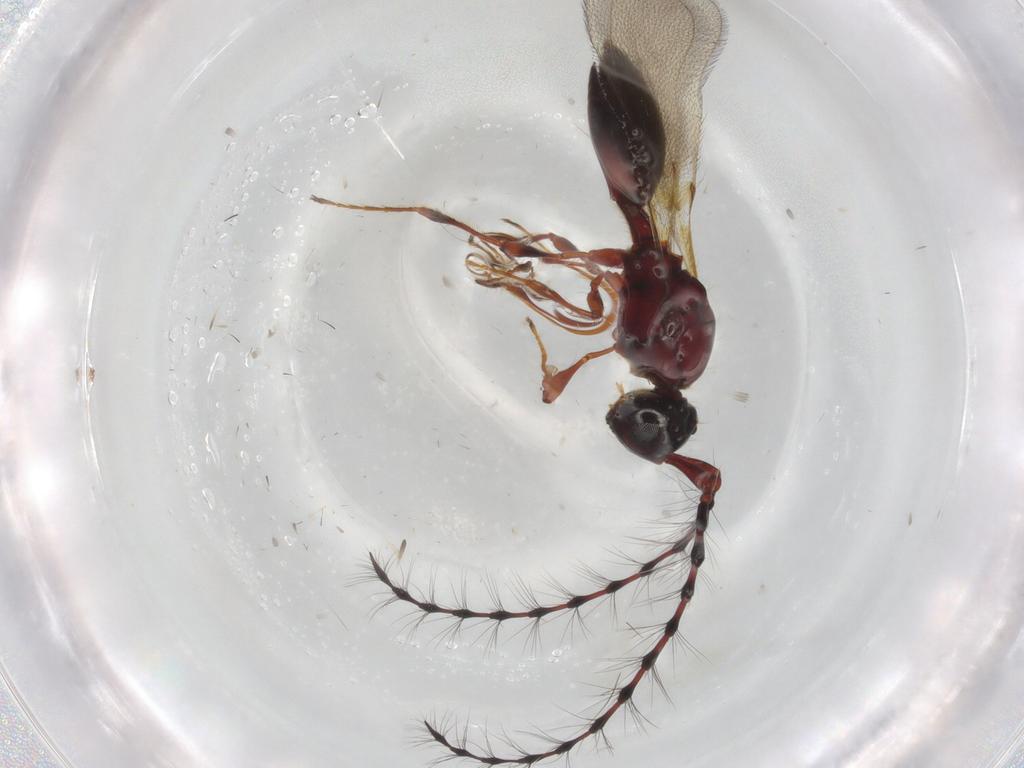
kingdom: Animalia
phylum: Arthropoda
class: Insecta
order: Hymenoptera
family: Diapriidae
